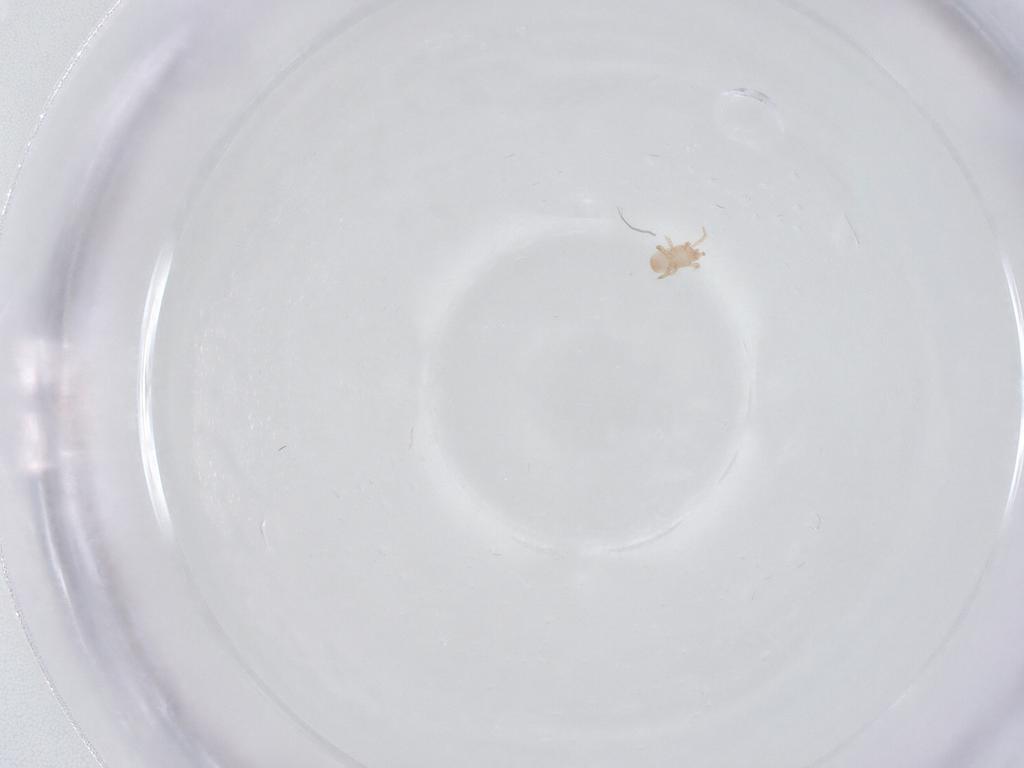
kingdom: Animalia
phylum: Arthropoda
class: Arachnida
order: Mesostigmata
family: Digamasellidae
